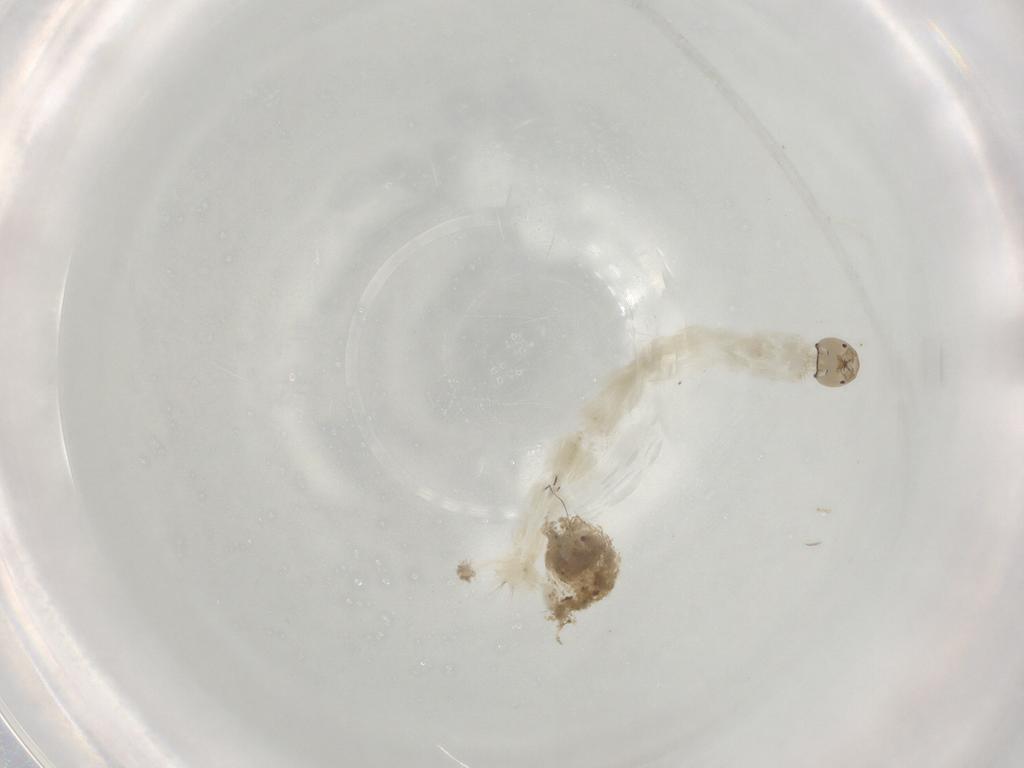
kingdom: Animalia
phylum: Arthropoda
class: Insecta
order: Diptera
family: Chironomidae
